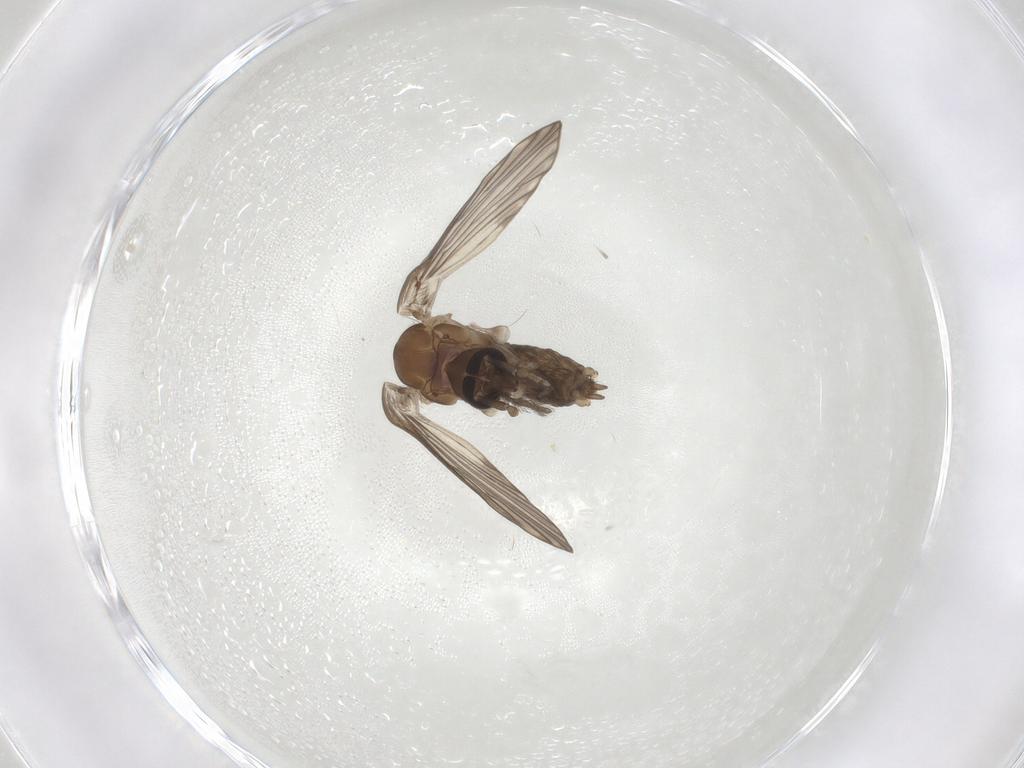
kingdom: Animalia
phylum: Arthropoda
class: Insecta
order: Diptera
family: Psychodidae
